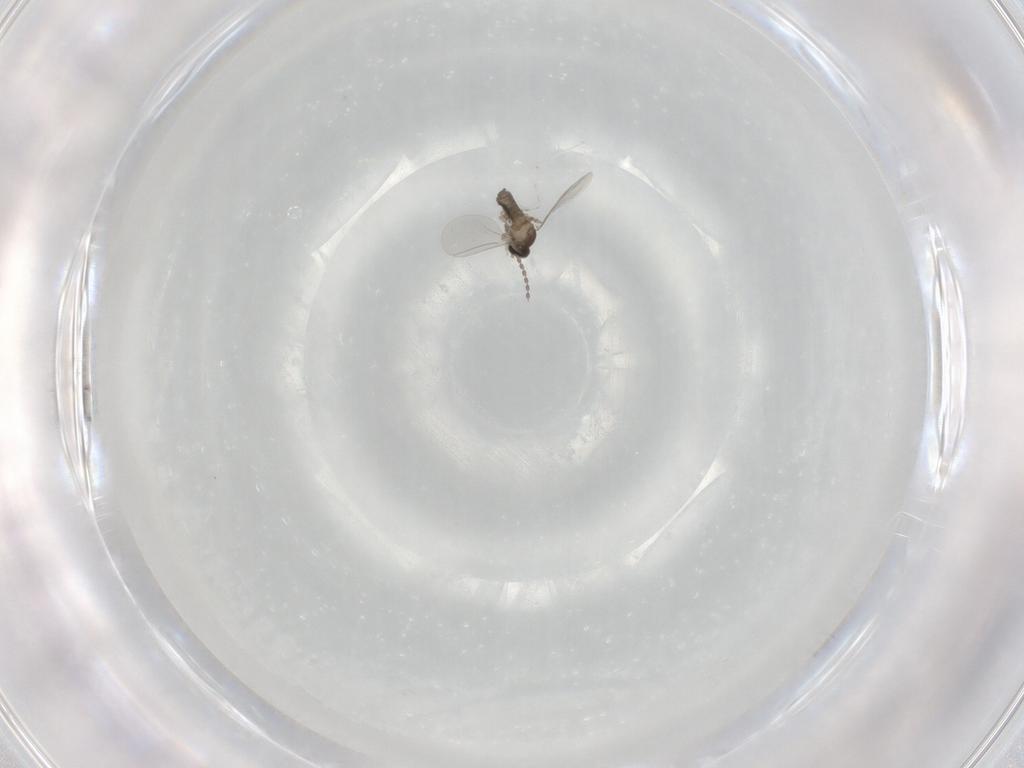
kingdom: Animalia
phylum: Arthropoda
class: Insecta
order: Diptera
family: Cecidomyiidae
